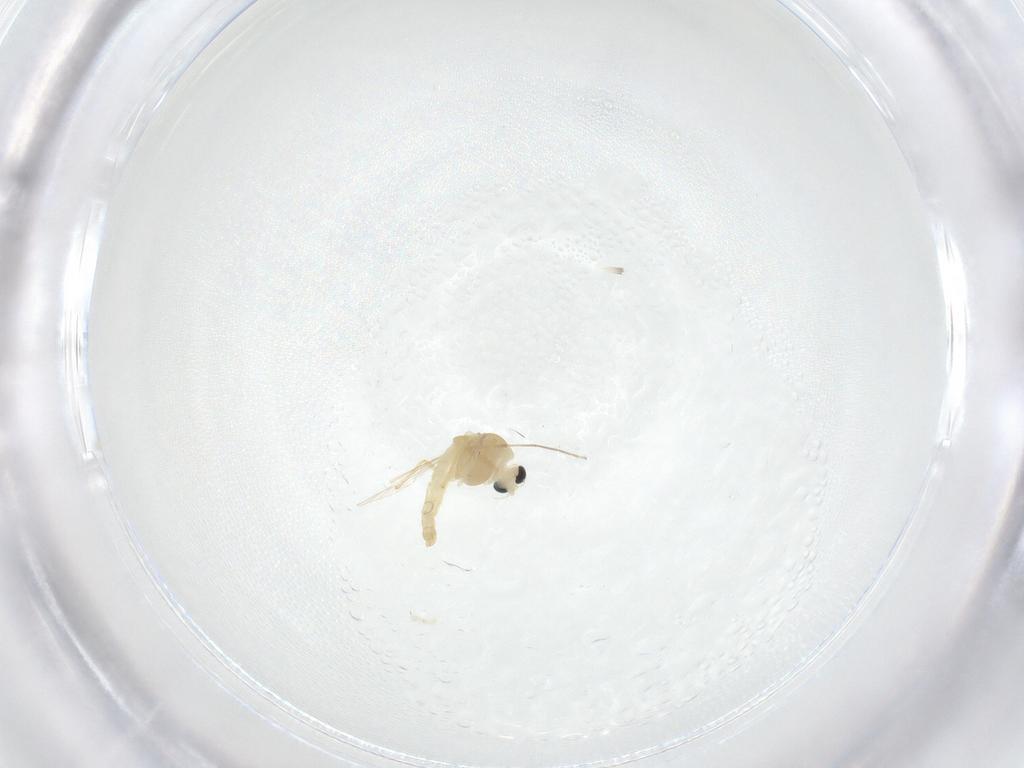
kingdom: Animalia
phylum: Arthropoda
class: Insecta
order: Diptera
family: Chironomidae
